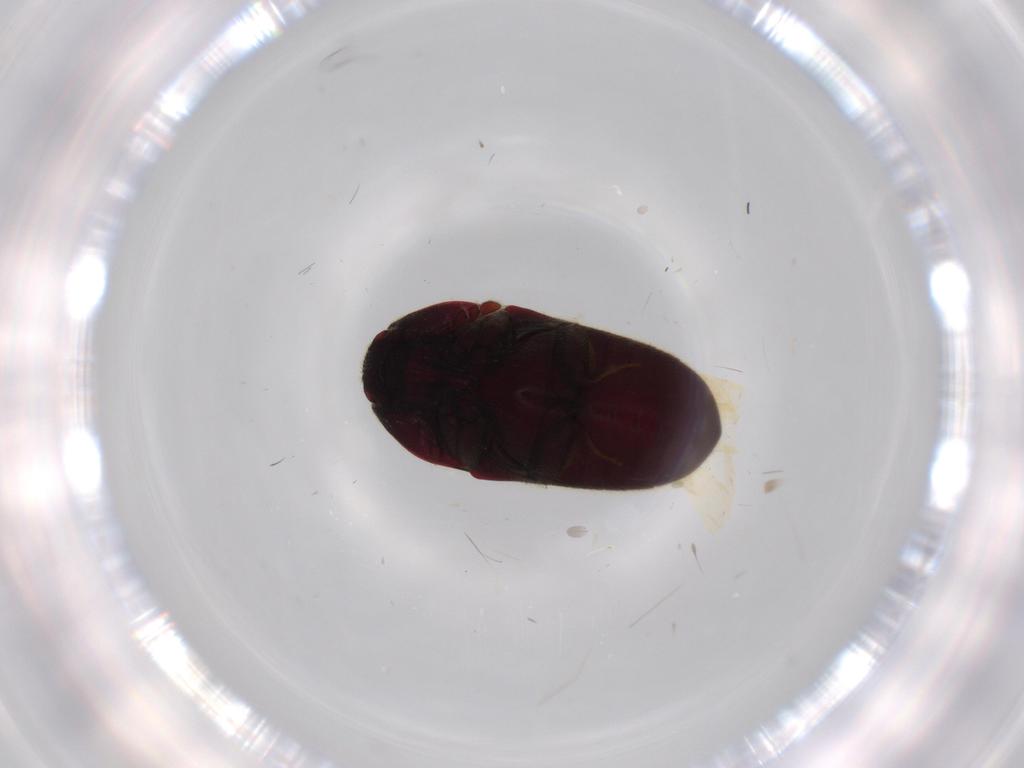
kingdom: Animalia
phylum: Arthropoda
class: Insecta
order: Coleoptera
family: Throscidae
